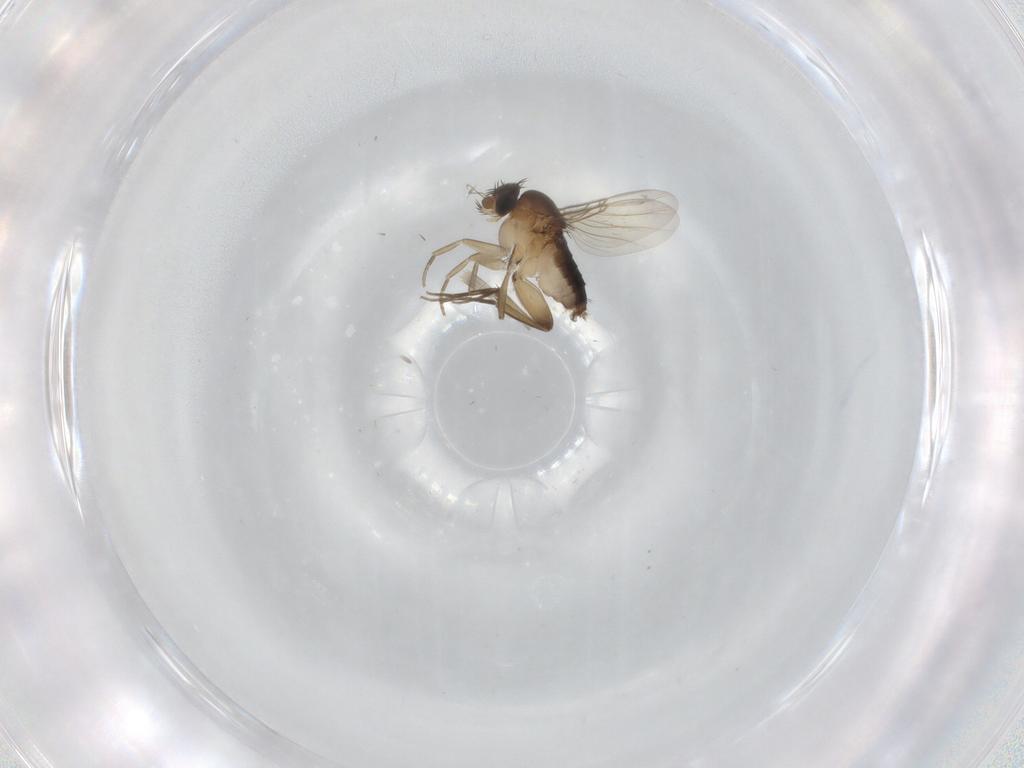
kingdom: Animalia
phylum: Arthropoda
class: Insecta
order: Diptera
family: Phoridae
